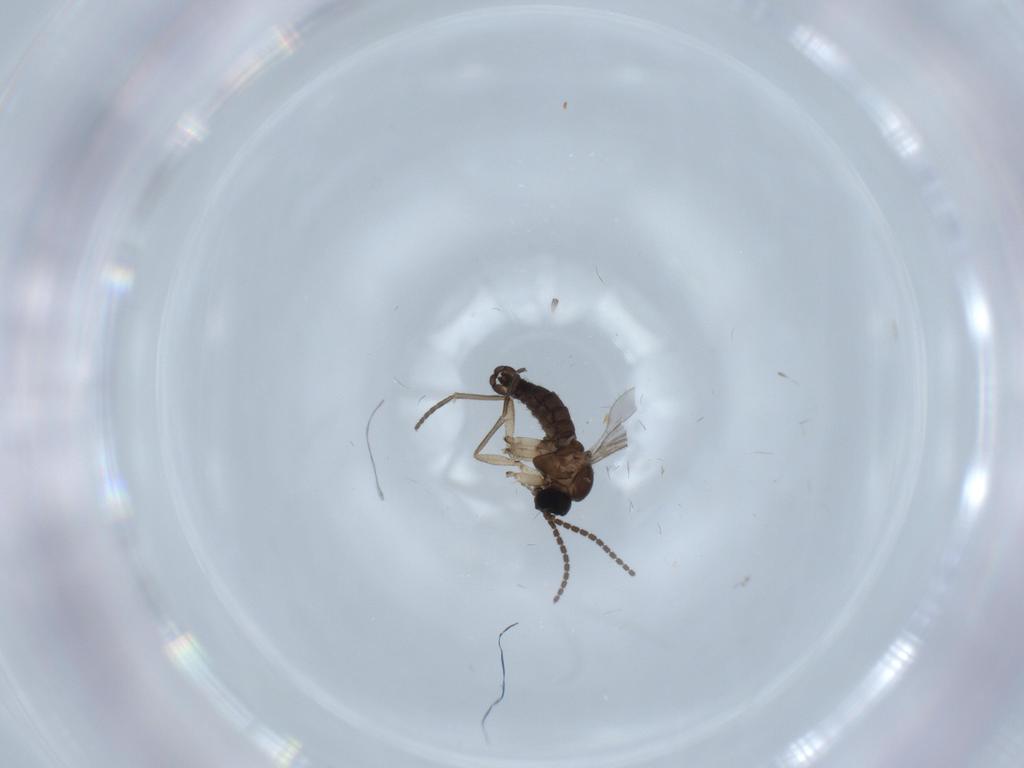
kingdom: Animalia
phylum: Arthropoda
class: Insecta
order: Diptera
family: Sciaridae
